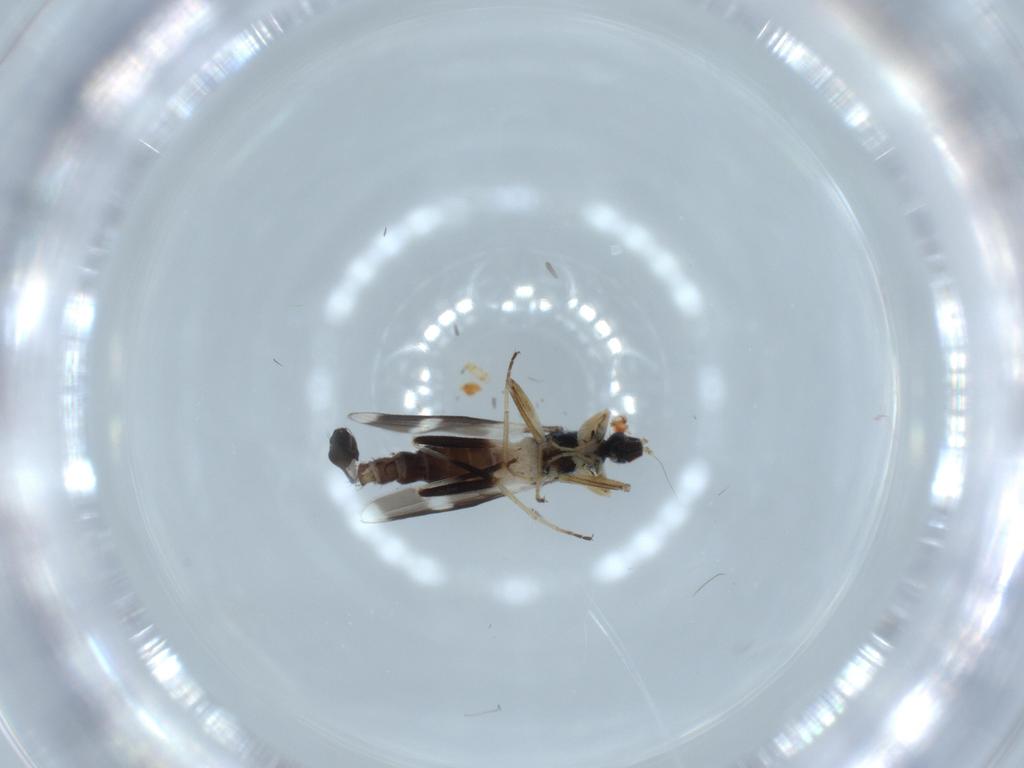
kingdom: Animalia
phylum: Arthropoda
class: Insecta
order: Diptera
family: Hybotidae
